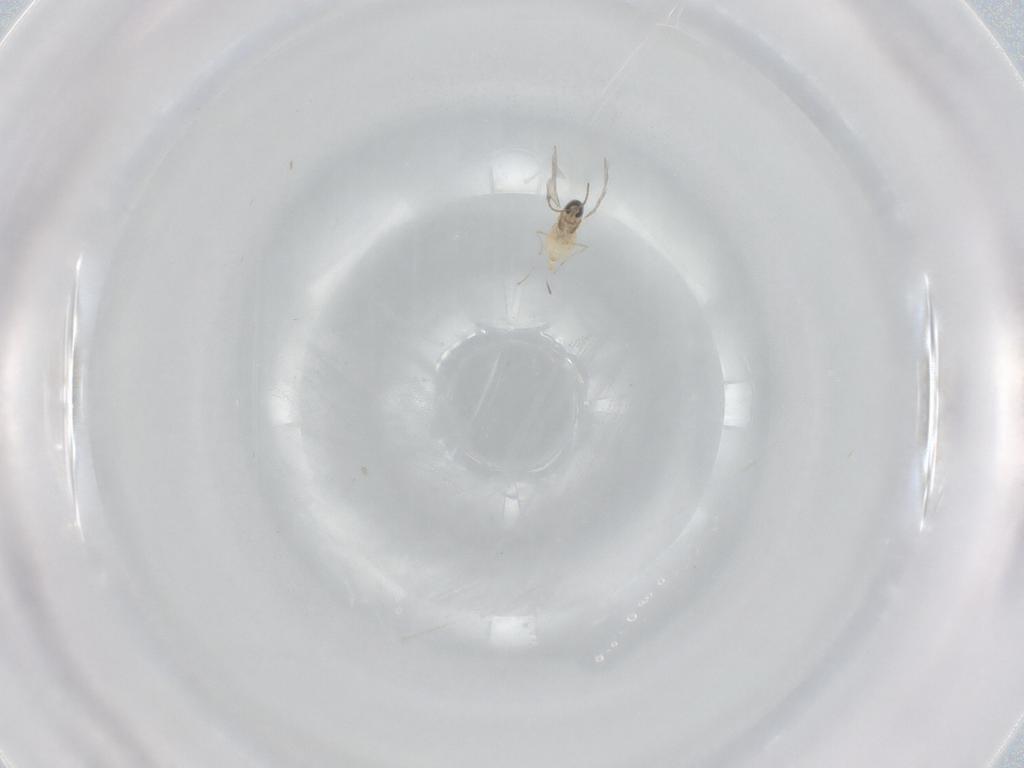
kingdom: Animalia
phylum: Arthropoda
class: Insecta
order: Diptera
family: Cecidomyiidae
